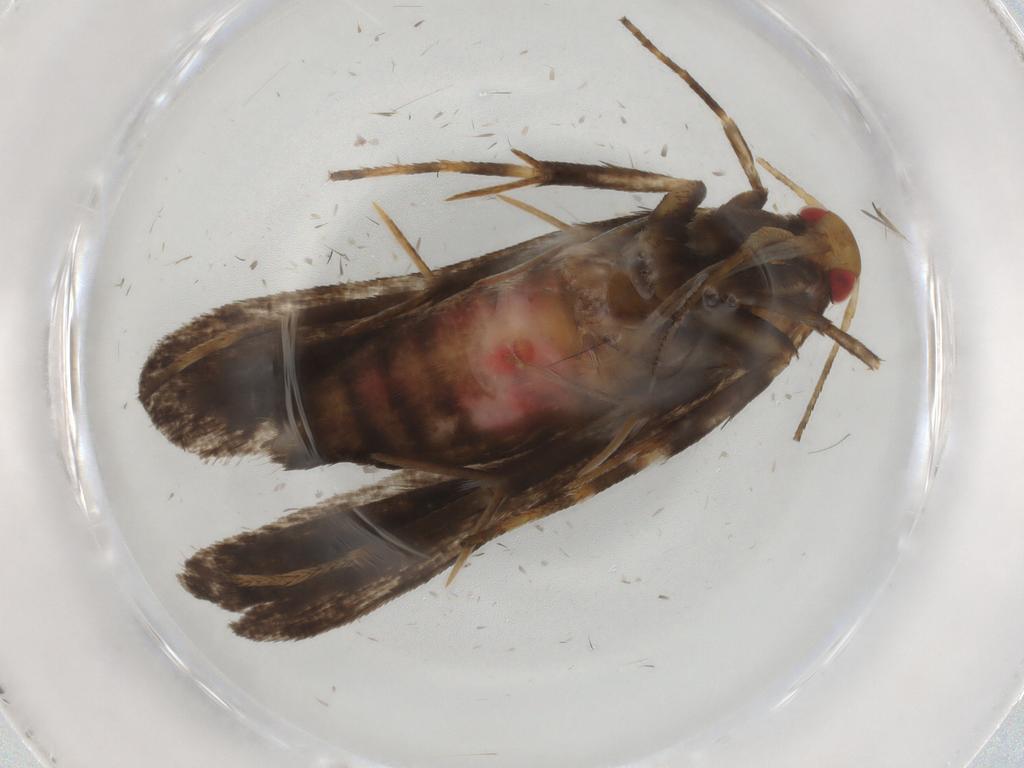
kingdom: Animalia
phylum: Arthropoda
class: Insecta
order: Lepidoptera
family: Gelechiidae
